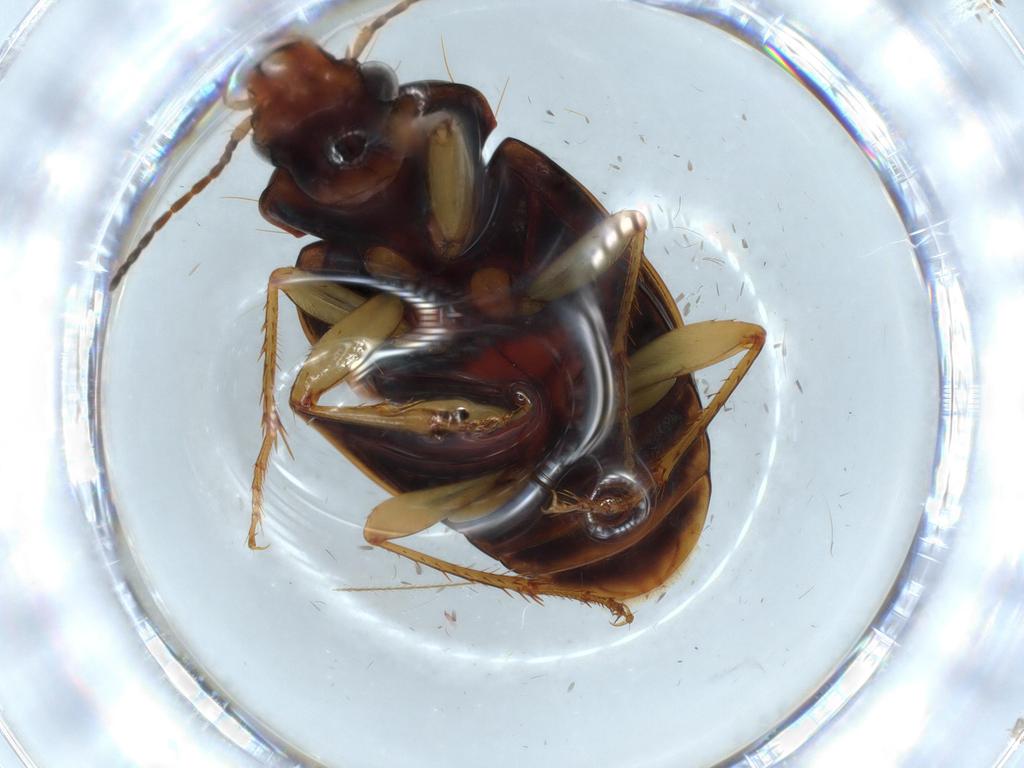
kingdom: Animalia
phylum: Arthropoda
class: Insecta
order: Coleoptera
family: Carabidae
